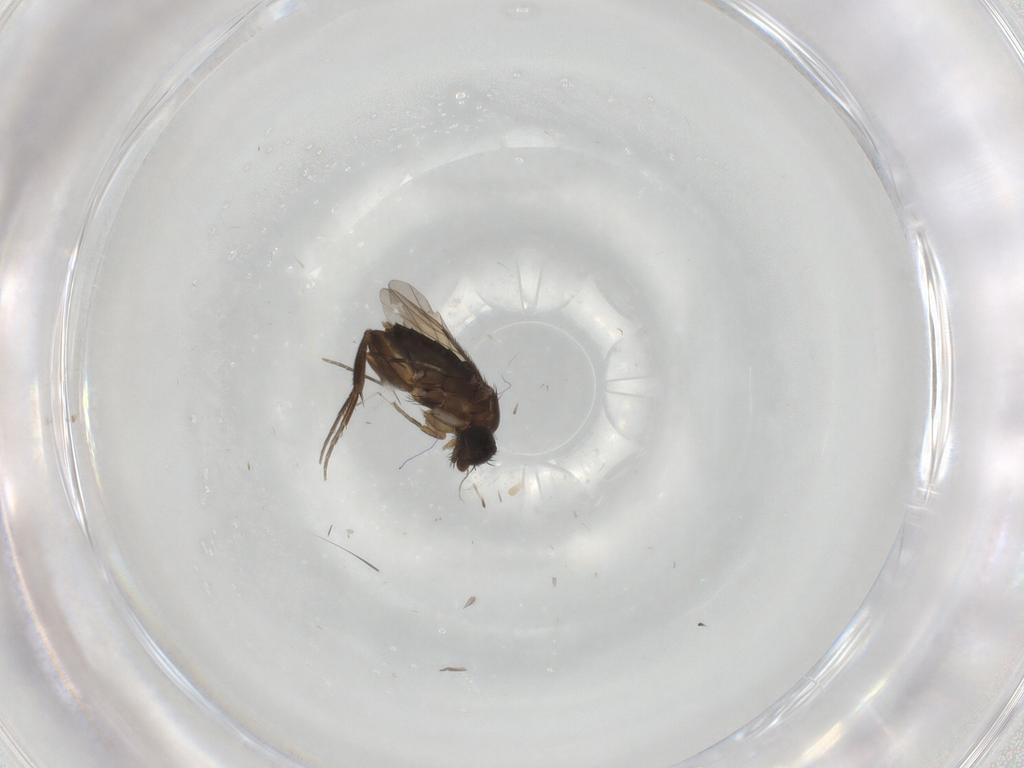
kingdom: Animalia
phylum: Arthropoda
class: Insecta
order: Diptera
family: Phoridae
